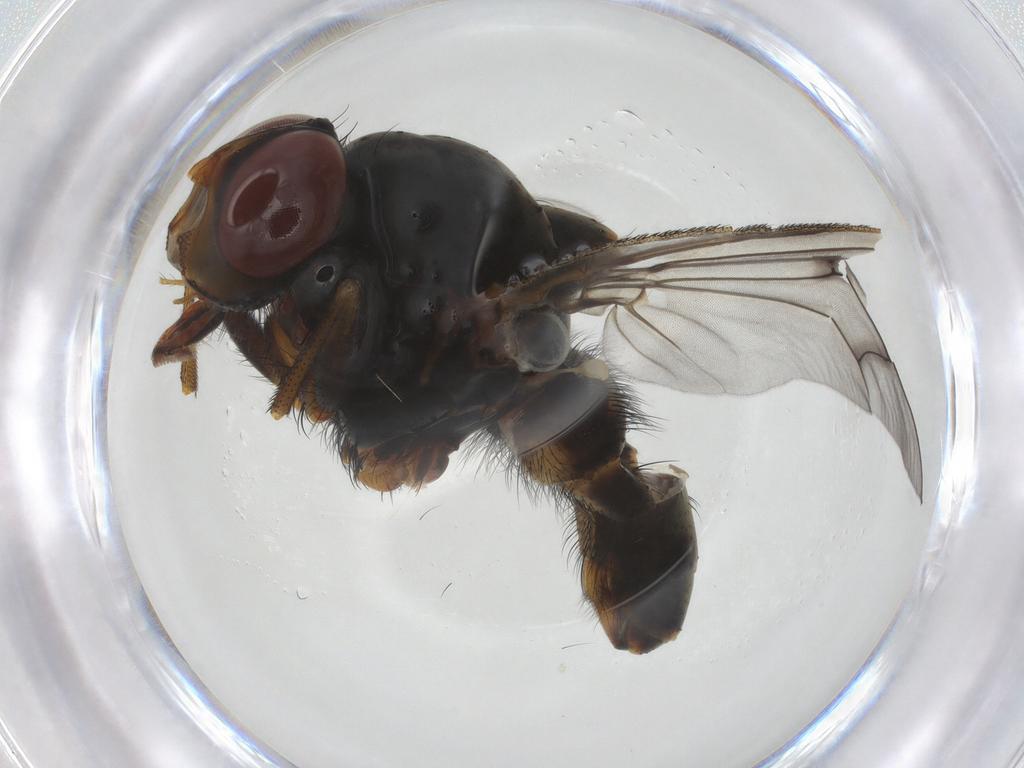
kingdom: Animalia
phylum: Arthropoda
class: Insecta
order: Diptera
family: Anthomyiidae
